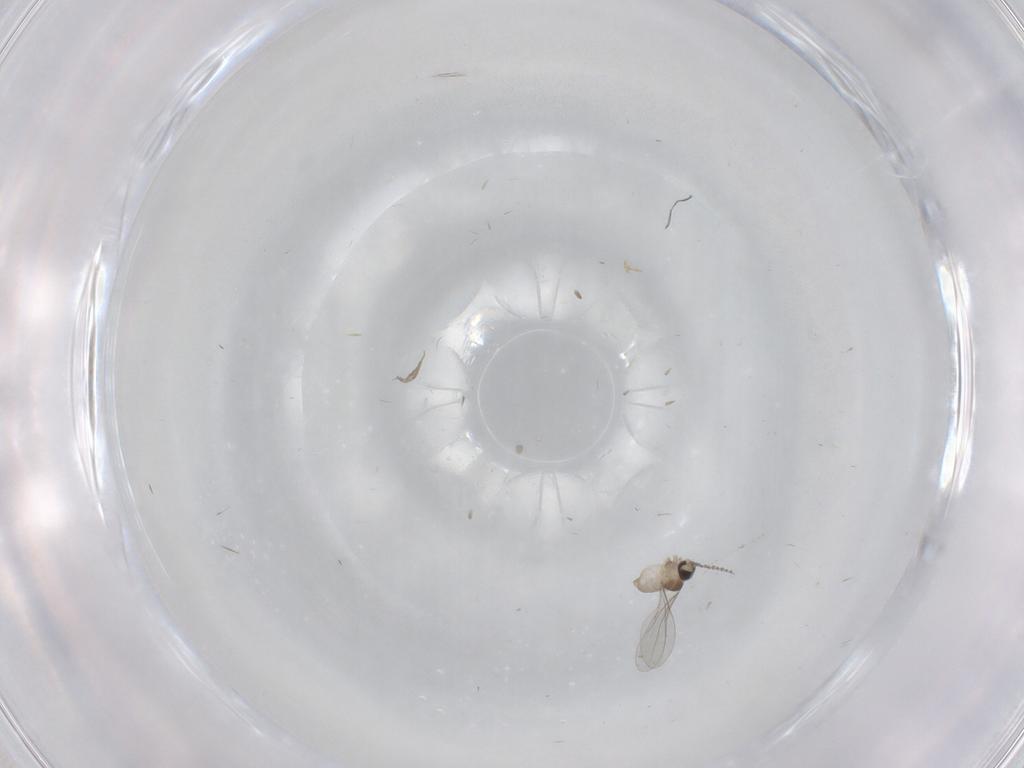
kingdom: Animalia
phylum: Arthropoda
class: Insecta
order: Diptera
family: Cecidomyiidae
